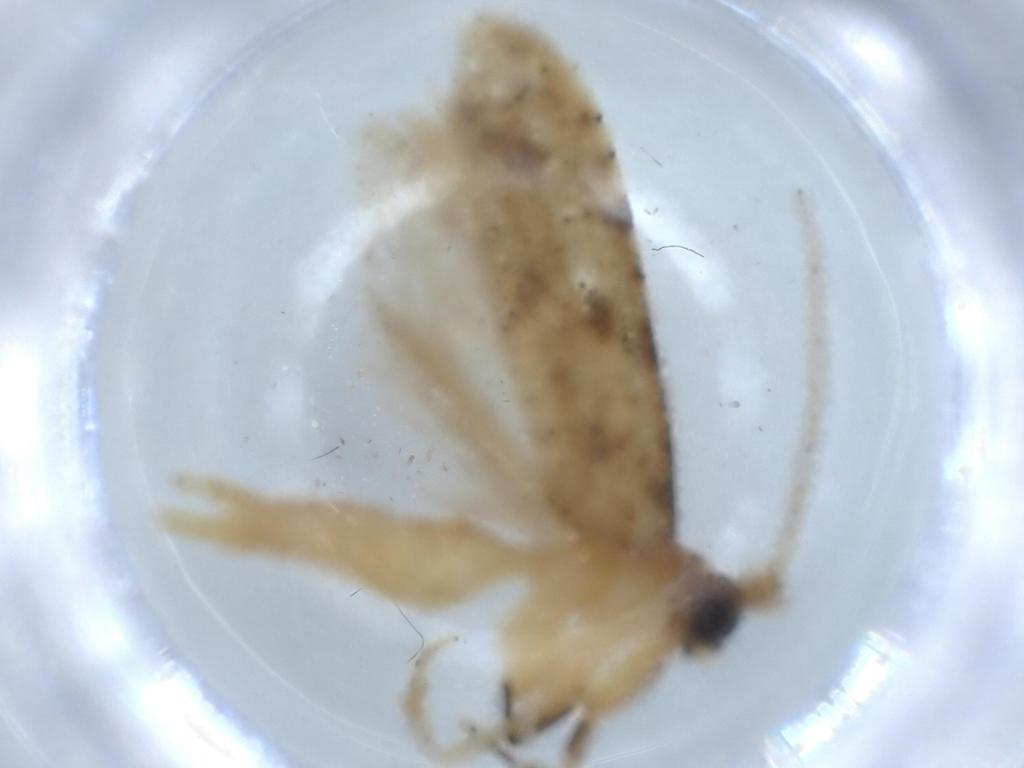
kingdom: Animalia
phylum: Arthropoda
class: Insecta
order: Lepidoptera
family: Autostichidae
